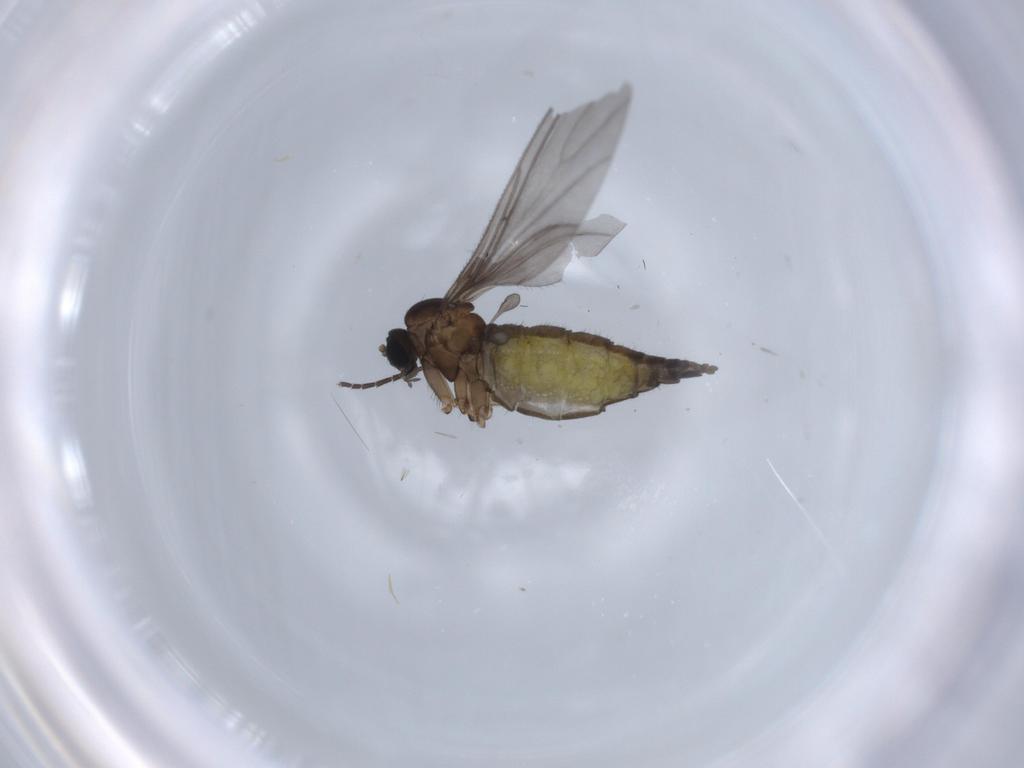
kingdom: Animalia
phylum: Arthropoda
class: Insecta
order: Diptera
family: Sciaridae
